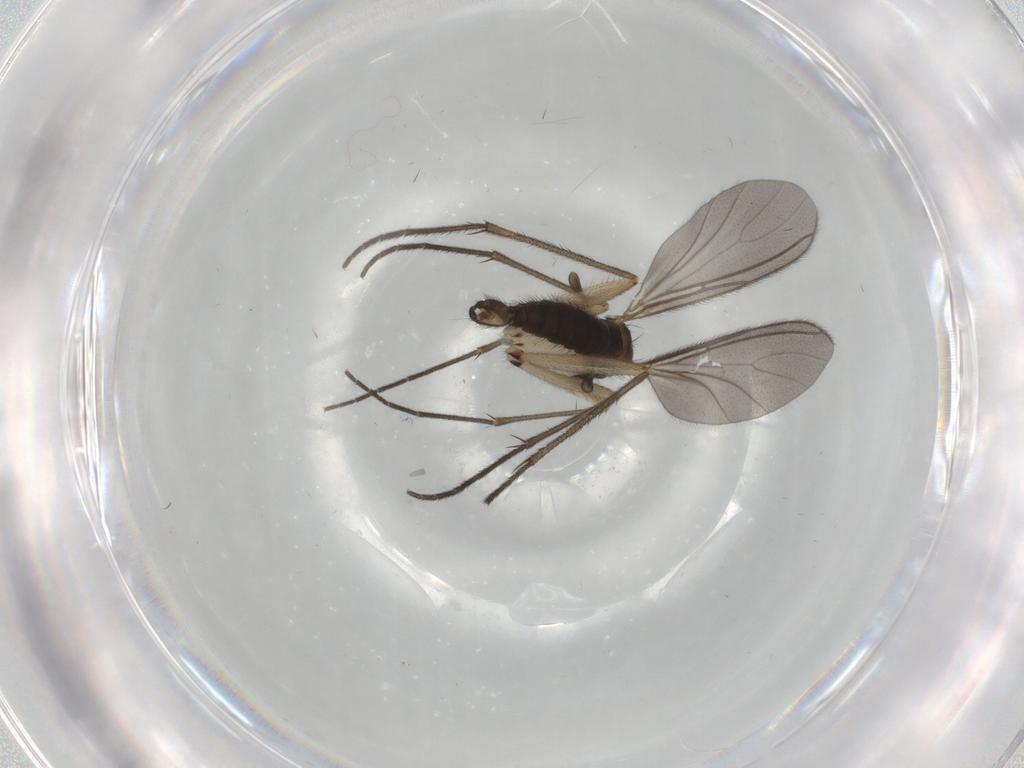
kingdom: Animalia
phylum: Arthropoda
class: Insecta
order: Diptera
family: Sciaridae
